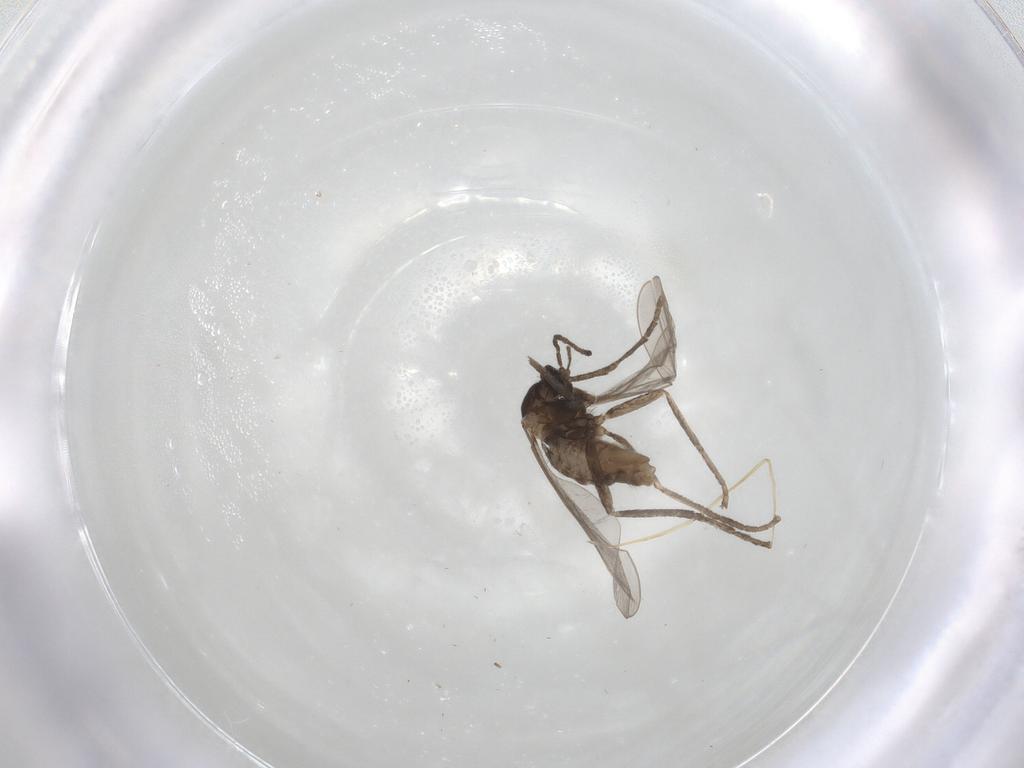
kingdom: Animalia
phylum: Arthropoda
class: Insecta
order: Diptera
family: Cecidomyiidae
